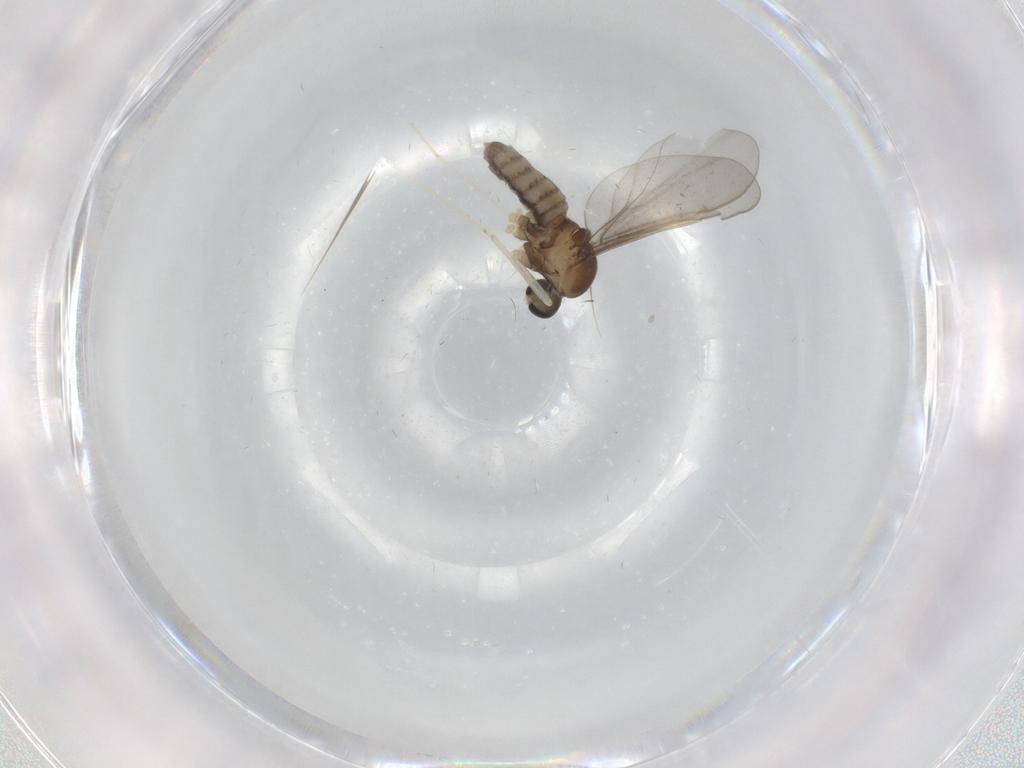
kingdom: Animalia
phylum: Arthropoda
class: Insecta
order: Diptera
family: Cecidomyiidae
